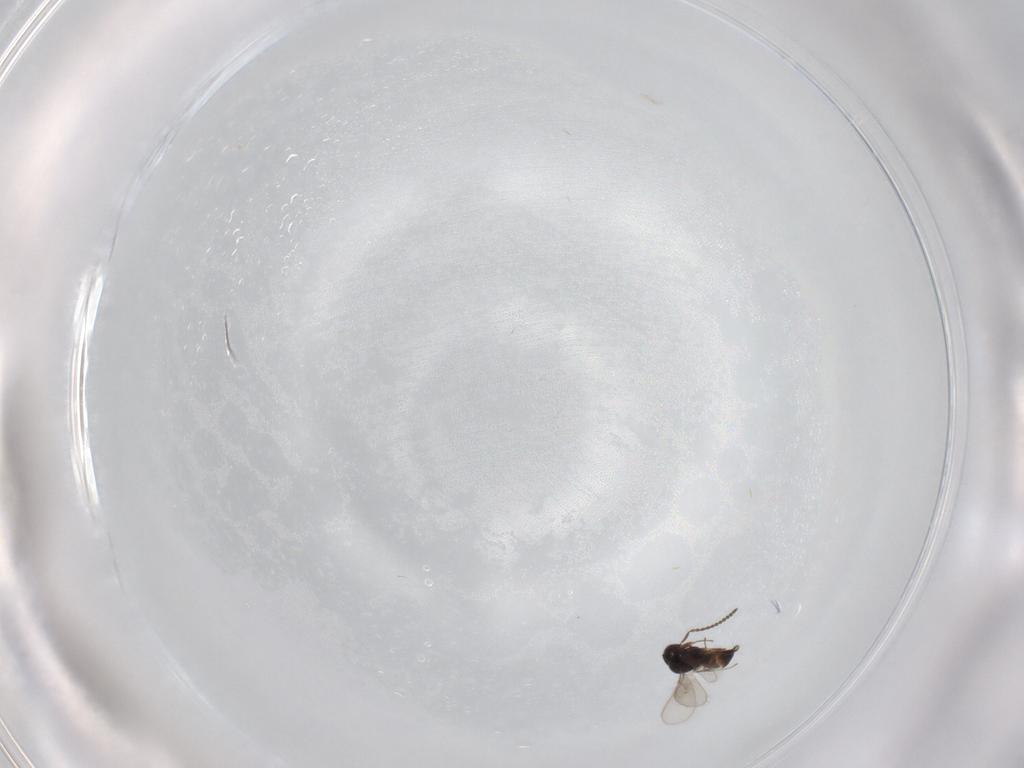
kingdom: Animalia
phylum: Arthropoda
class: Insecta
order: Hymenoptera
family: Scelionidae
